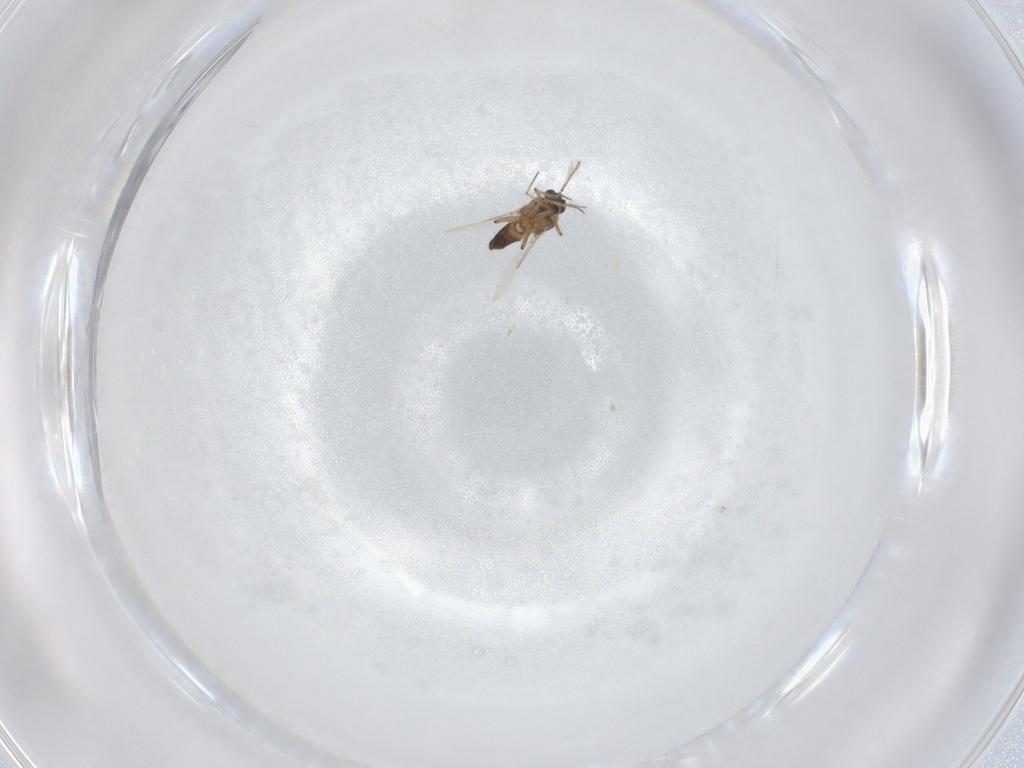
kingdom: Animalia
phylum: Arthropoda
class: Insecta
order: Diptera
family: Ceratopogonidae
